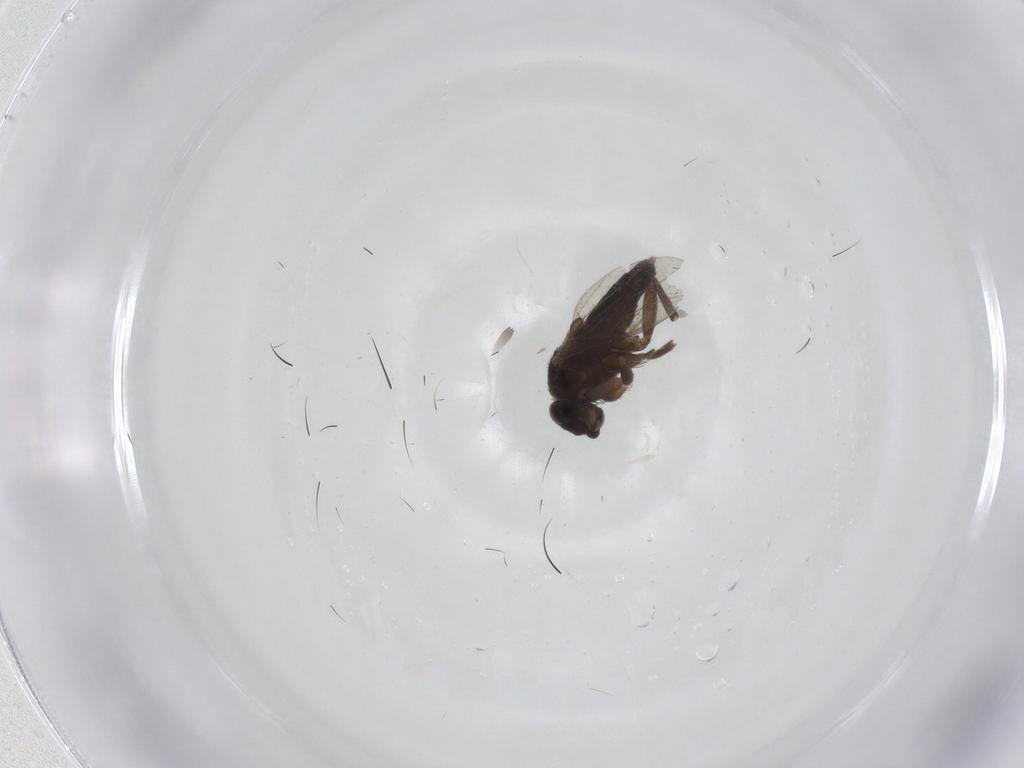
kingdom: Animalia
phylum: Arthropoda
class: Insecta
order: Diptera
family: Phoridae
